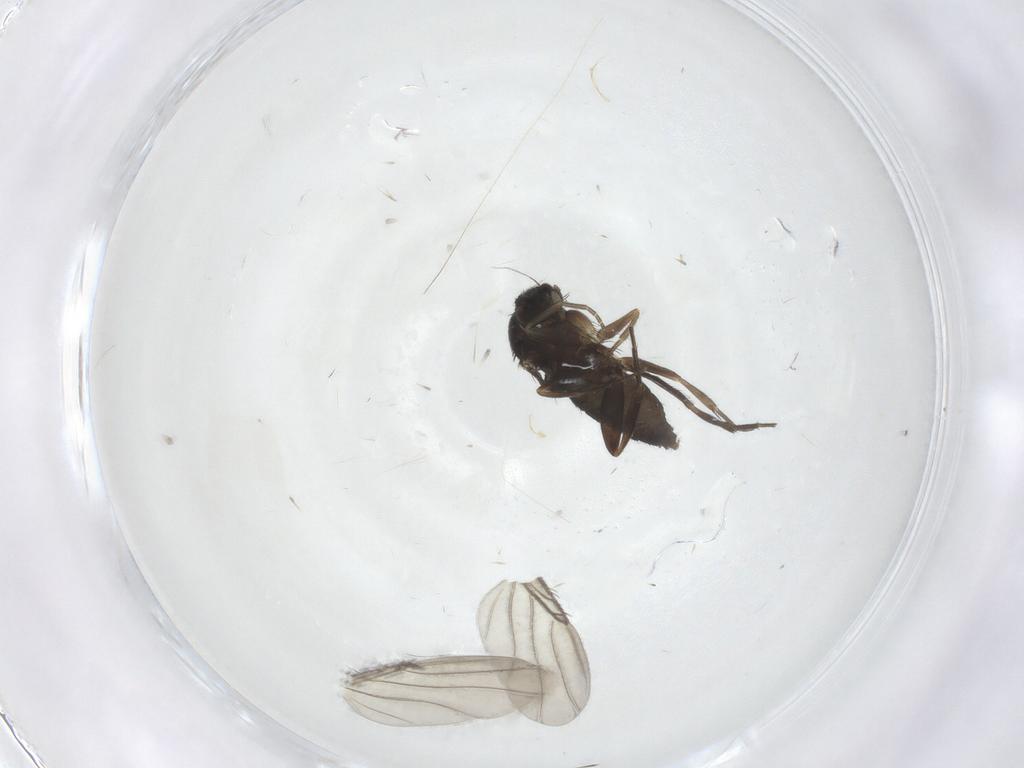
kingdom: Animalia
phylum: Arthropoda
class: Insecta
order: Diptera
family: Phoridae
